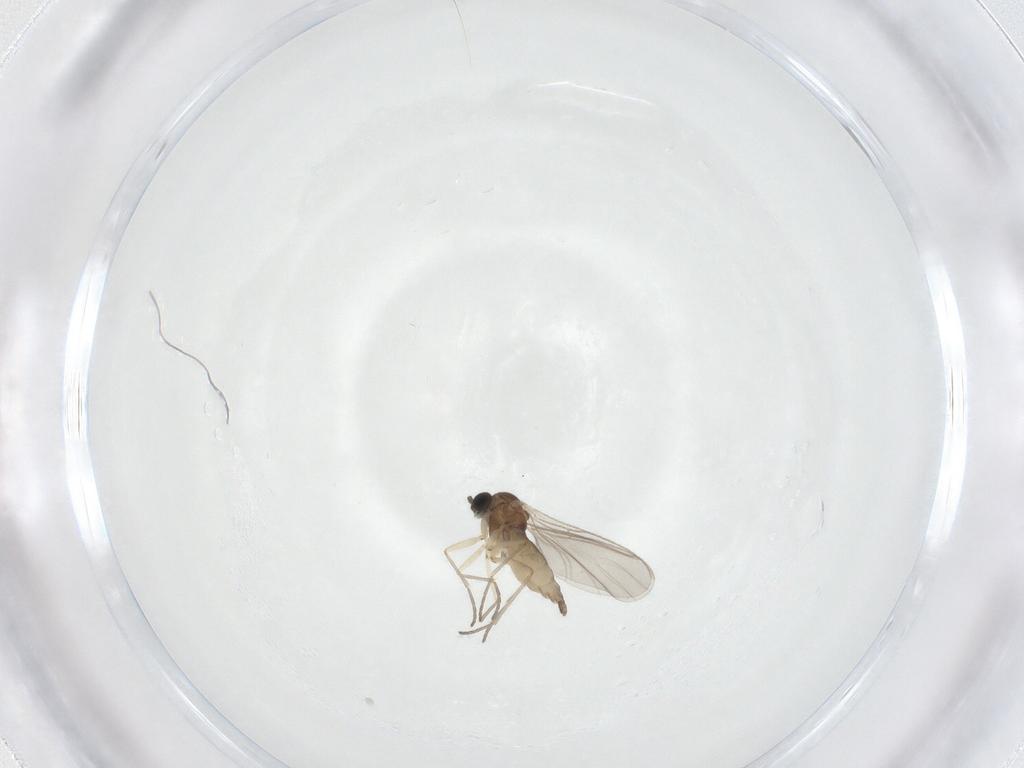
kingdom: Animalia
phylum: Arthropoda
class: Insecta
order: Diptera
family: Sciaridae
